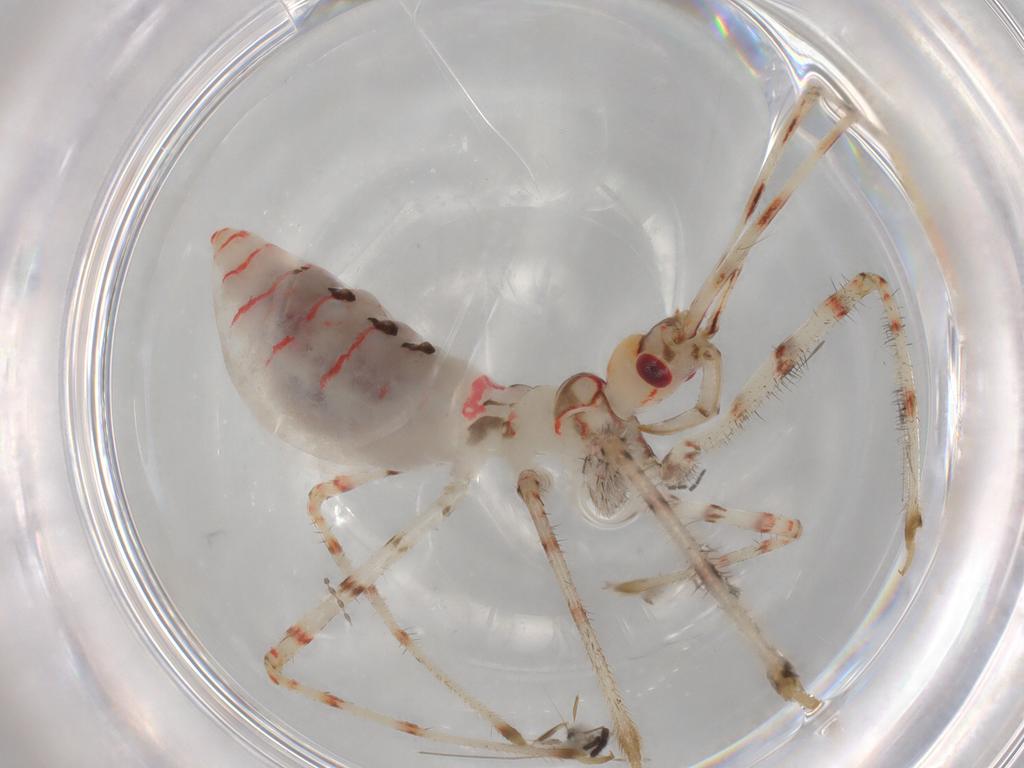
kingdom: Animalia
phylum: Arthropoda
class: Insecta
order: Hemiptera
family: Reduviidae
